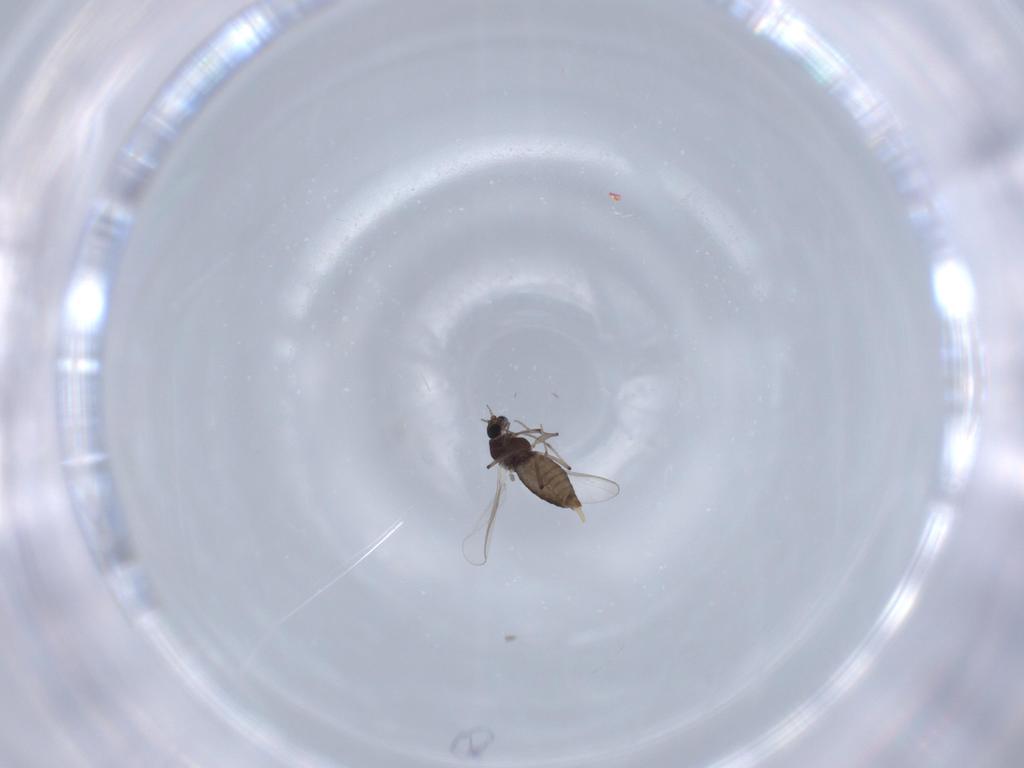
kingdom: Animalia
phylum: Arthropoda
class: Insecta
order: Diptera
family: Chironomidae
